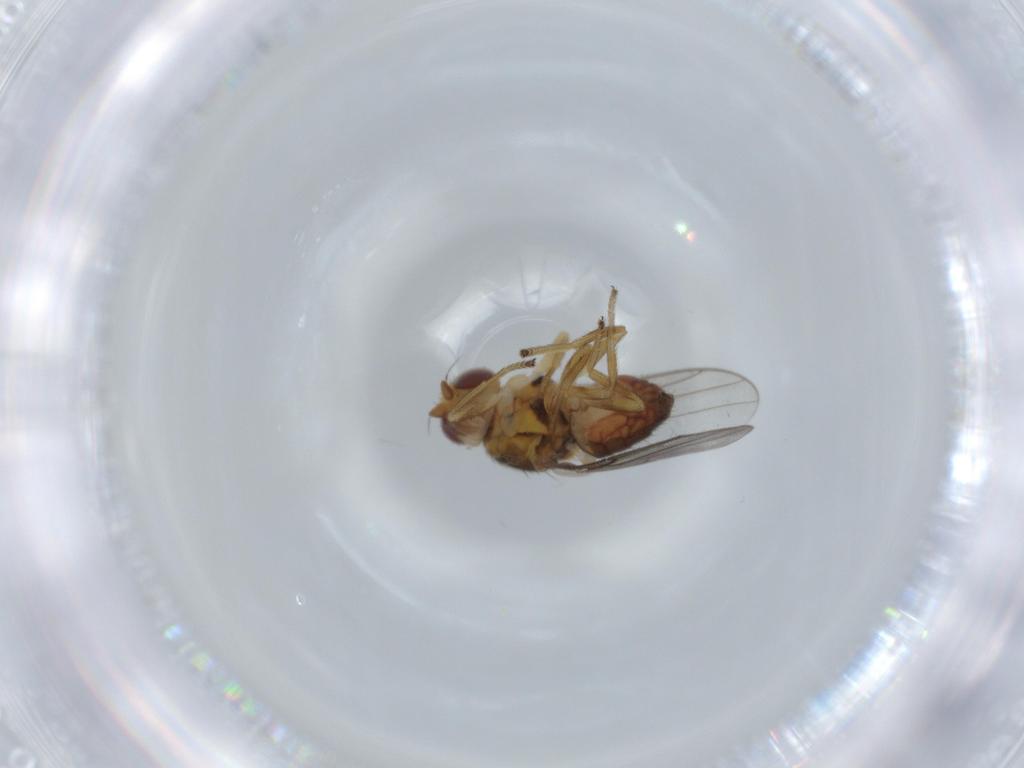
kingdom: Animalia
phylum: Arthropoda
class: Insecta
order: Diptera
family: Chloropidae
